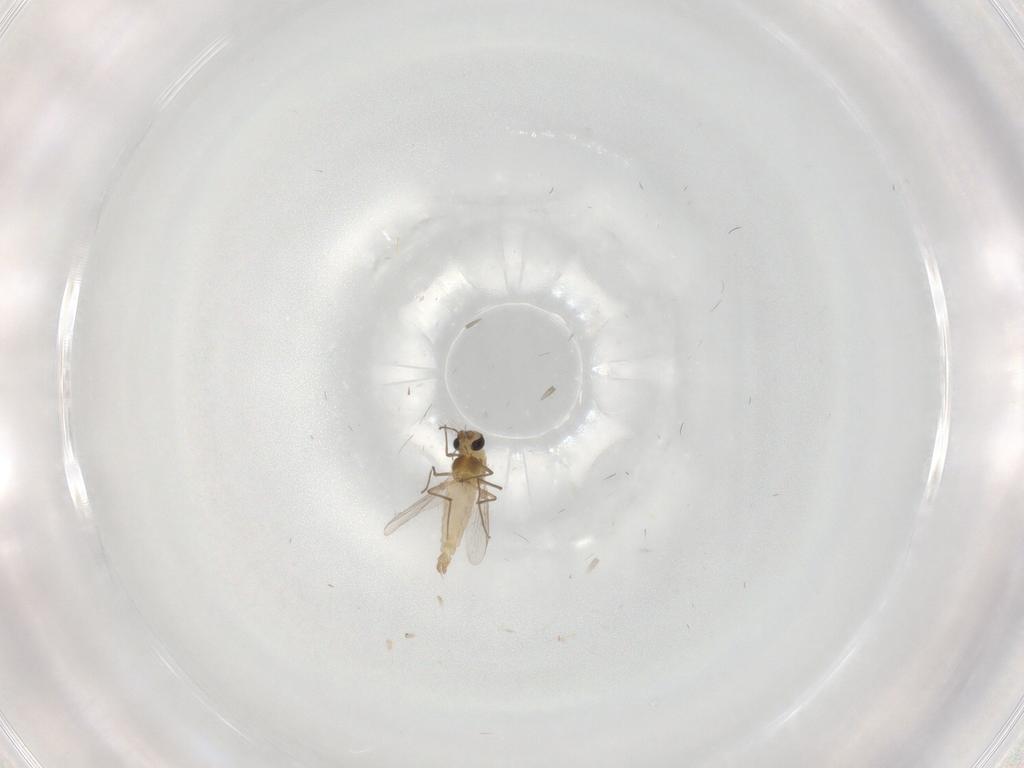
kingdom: Animalia
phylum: Arthropoda
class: Insecta
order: Diptera
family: Chironomidae
